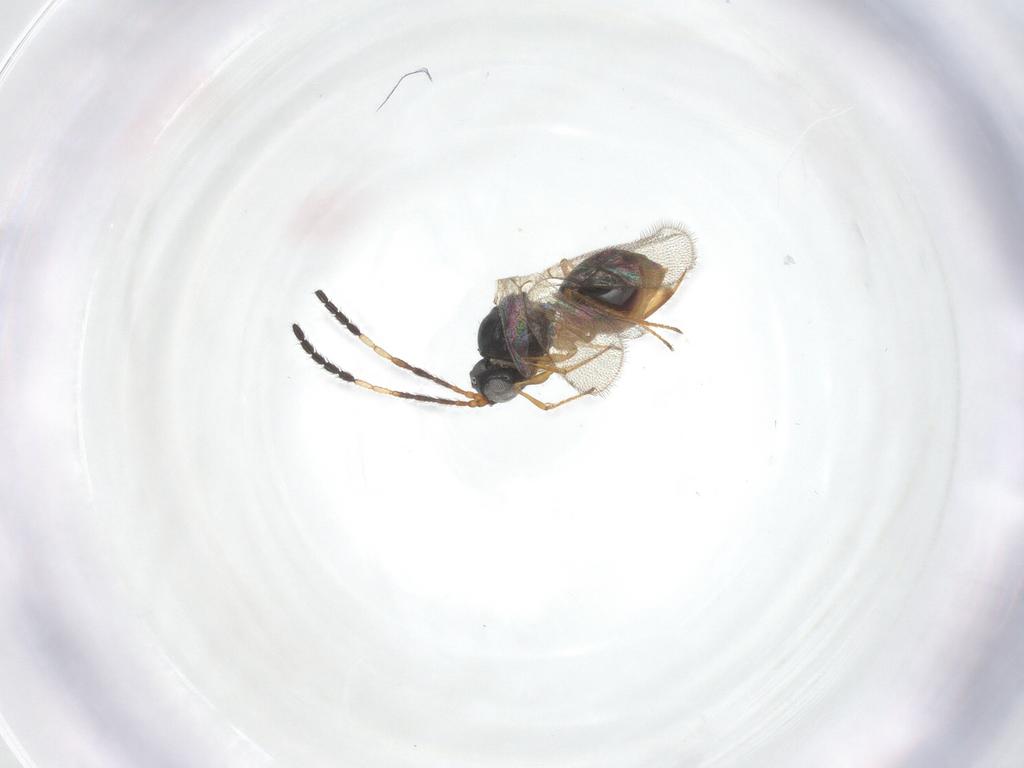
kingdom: Animalia
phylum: Arthropoda
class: Insecta
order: Hymenoptera
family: Figitidae
